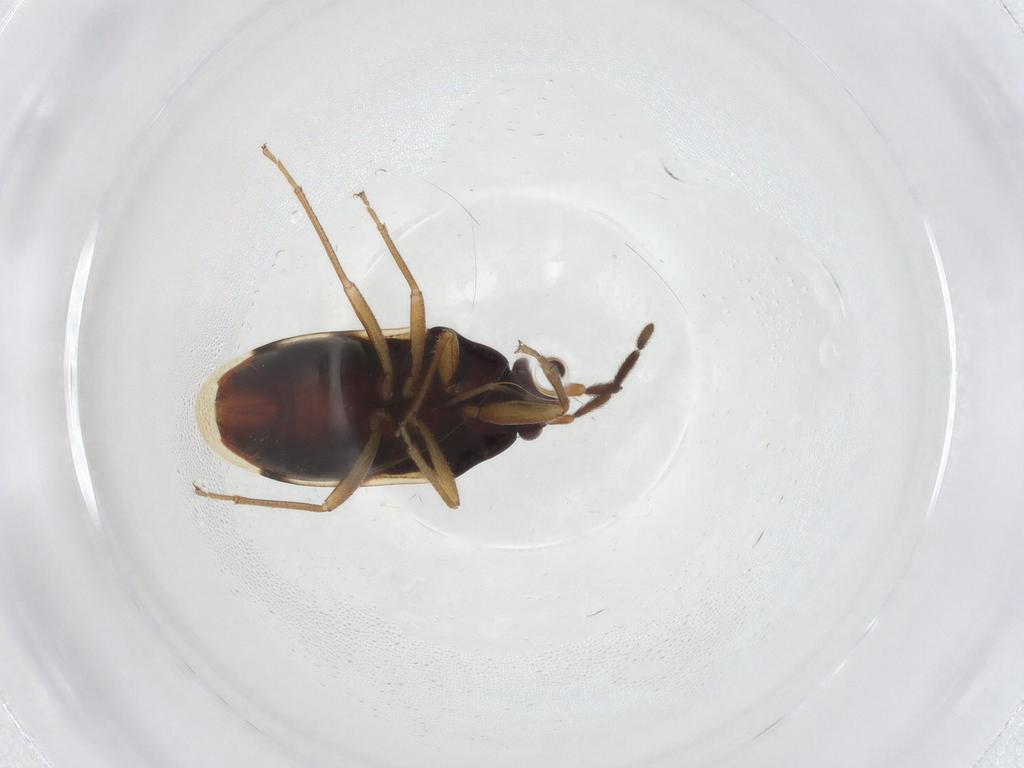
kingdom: Animalia
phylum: Arthropoda
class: Insecta
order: Hemiptera
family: Rhyparochromidae
